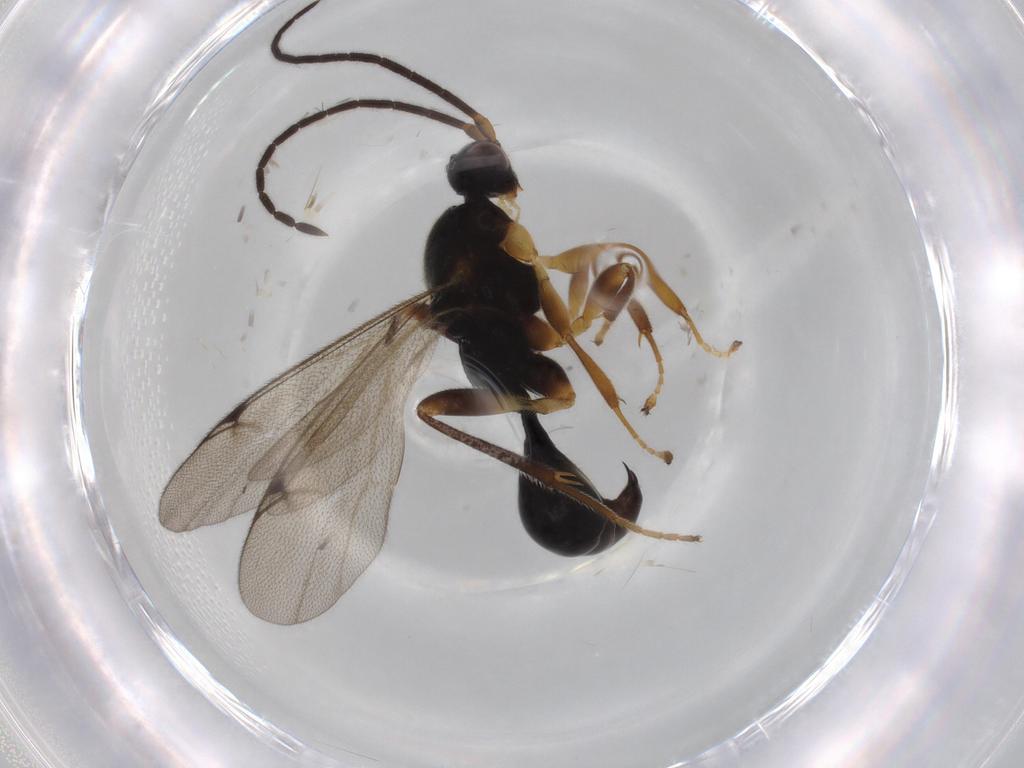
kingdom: Animalia
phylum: Arthropoda
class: Insecta
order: Hymenoptera
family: Proctotrupidae
